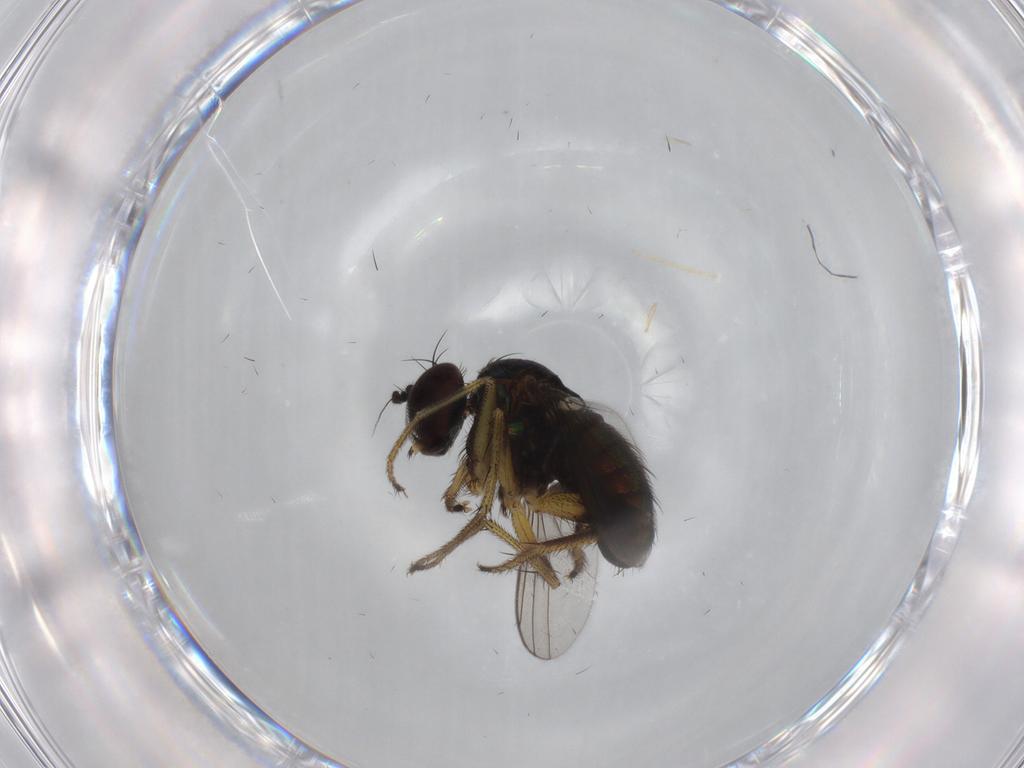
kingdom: Animalia
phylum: Arthropoda
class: Insecta
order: Diptera
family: Dolichopodidae
